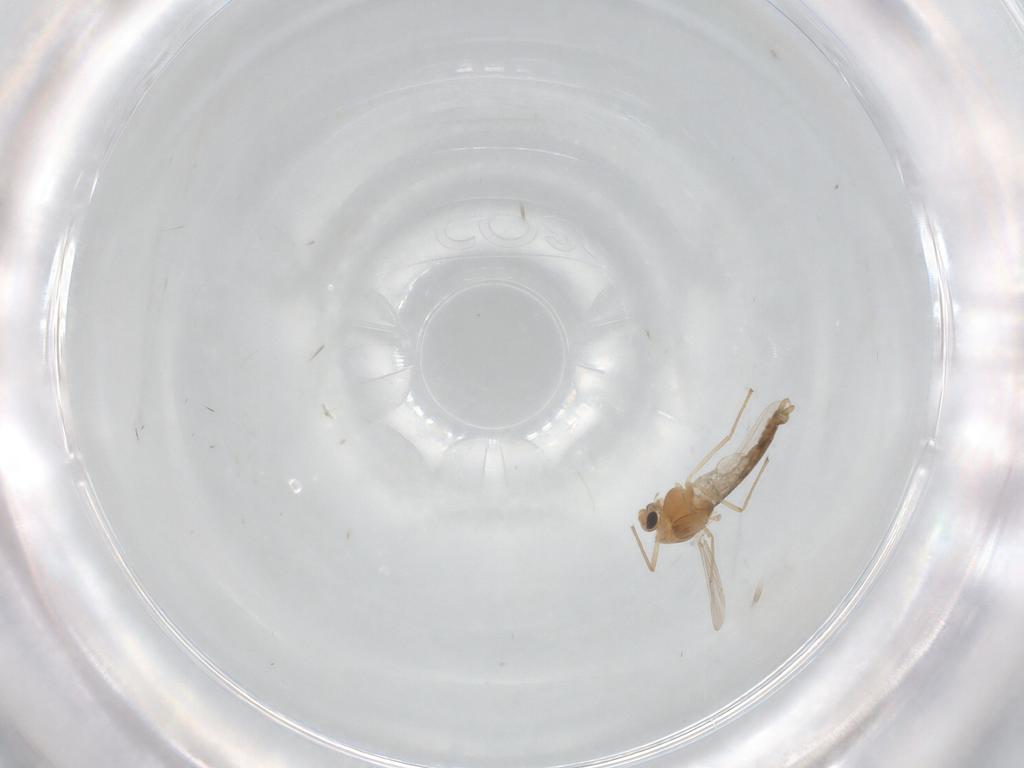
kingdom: Animalia
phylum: Arthropoda
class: Insecta
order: Diptera
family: Chironomidae
